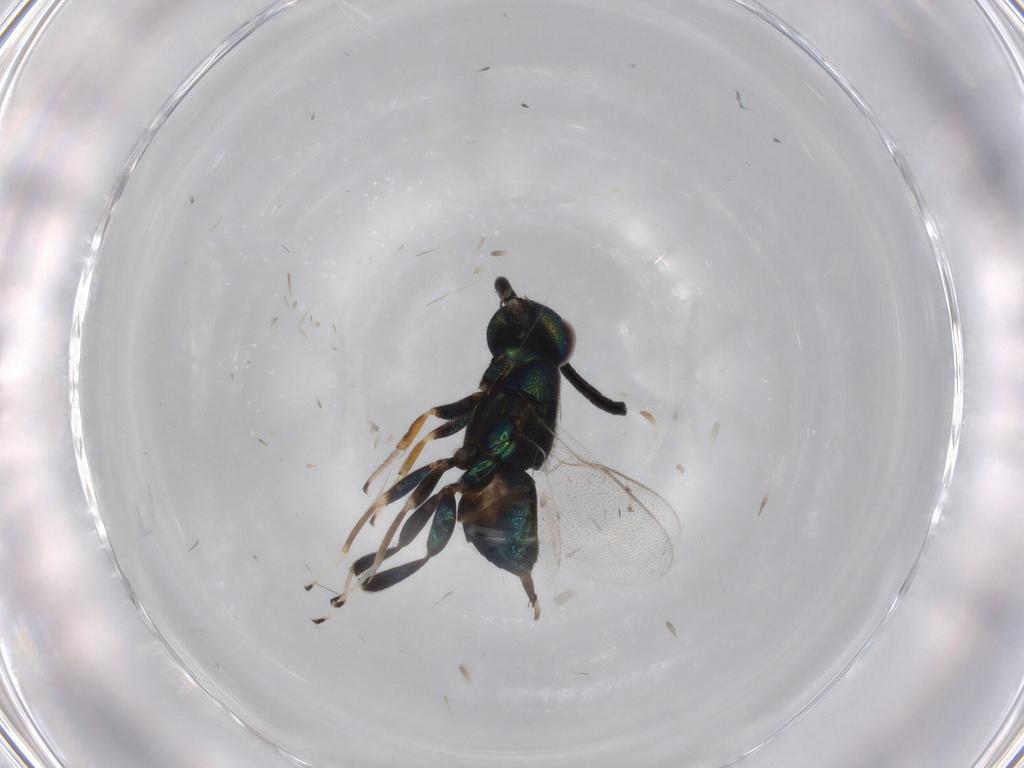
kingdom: Animalia
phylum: Arthropoda
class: Insecta
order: Hymenoptera
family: Eupelmidae
